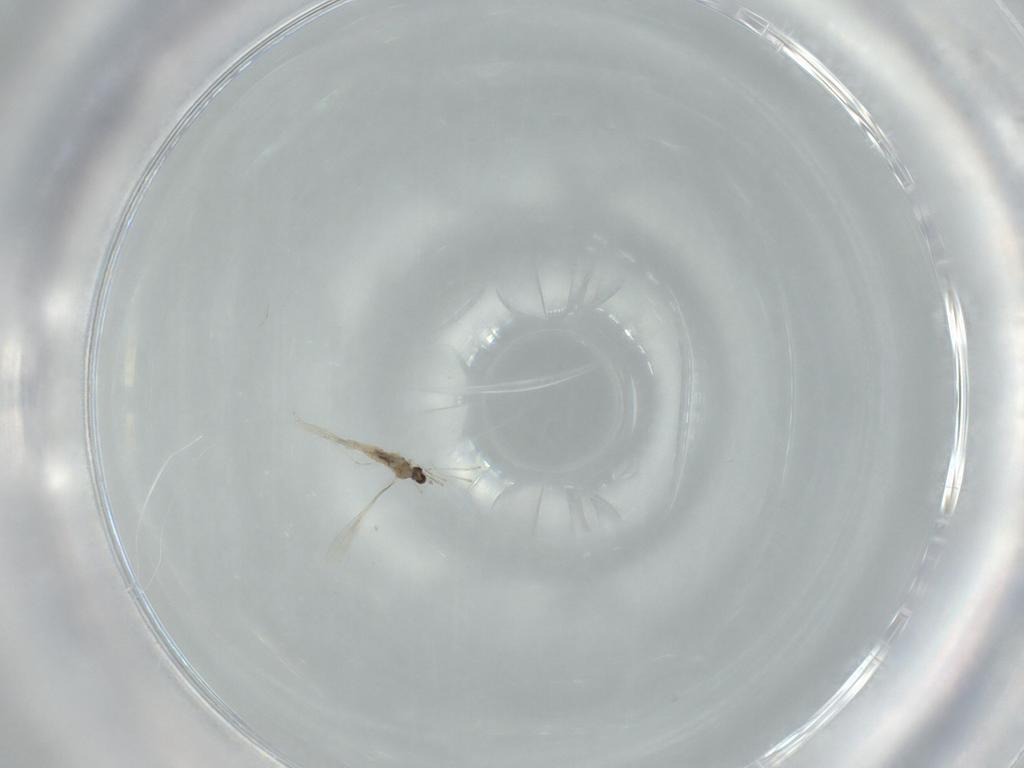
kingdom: Animalia
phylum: Arthropoda
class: Insecta
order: Diptera
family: Cecidomyiidae
